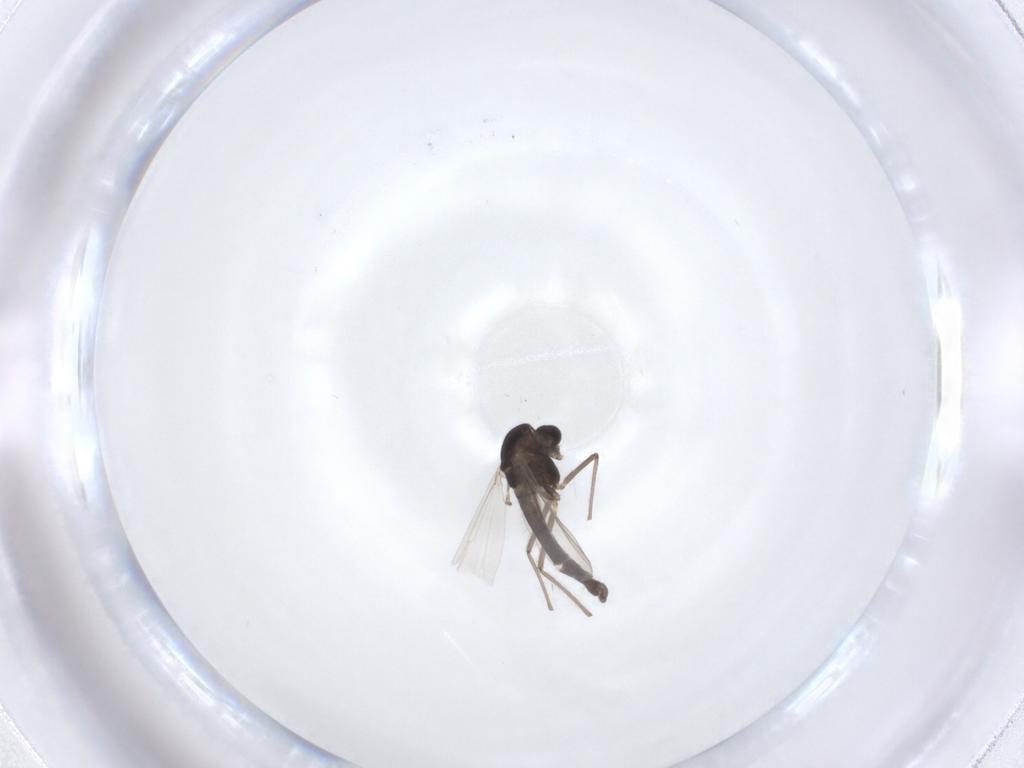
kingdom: Animalia
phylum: Arthropoda
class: Insecta
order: Diptera
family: Chironomidae
